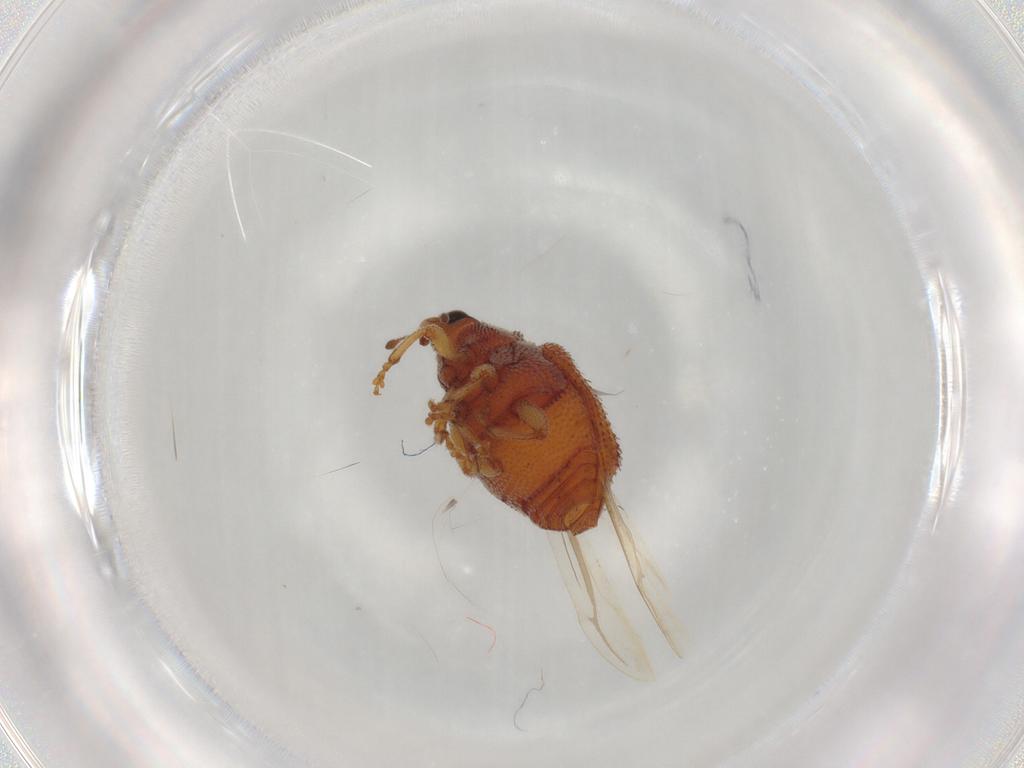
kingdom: Animalia
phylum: Arthropoda
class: Insecta
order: Coleoptera
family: Curculionidae
